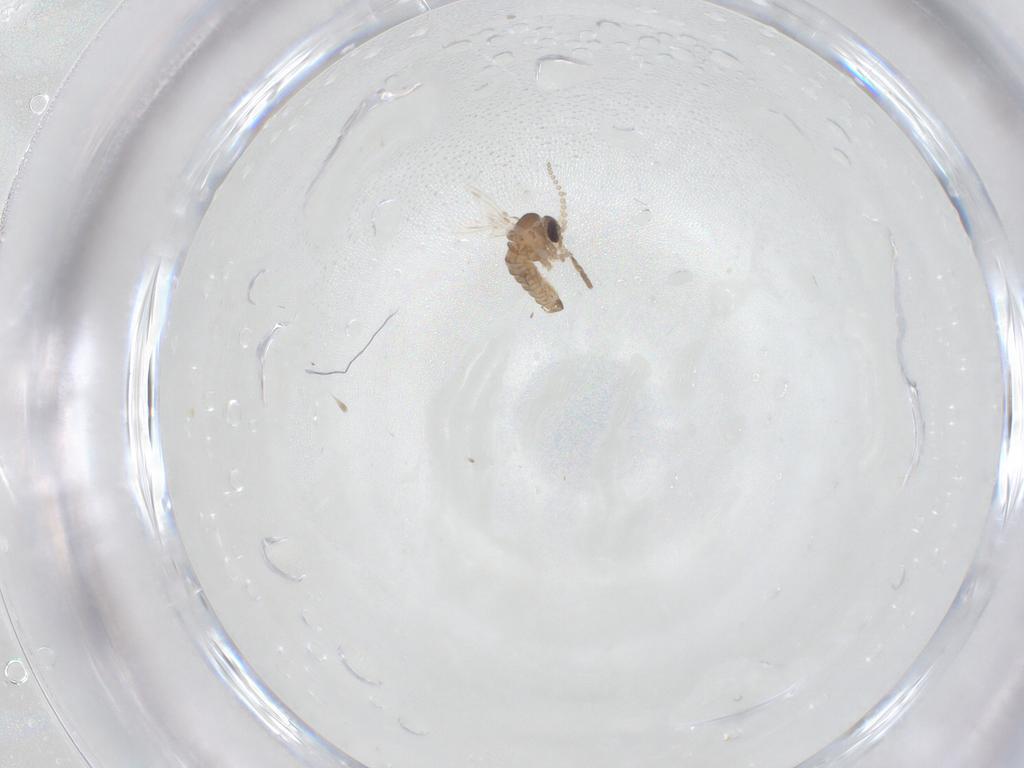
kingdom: Animalia
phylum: Arthropoda
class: Insecta
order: Diptera
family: Psychodidae
